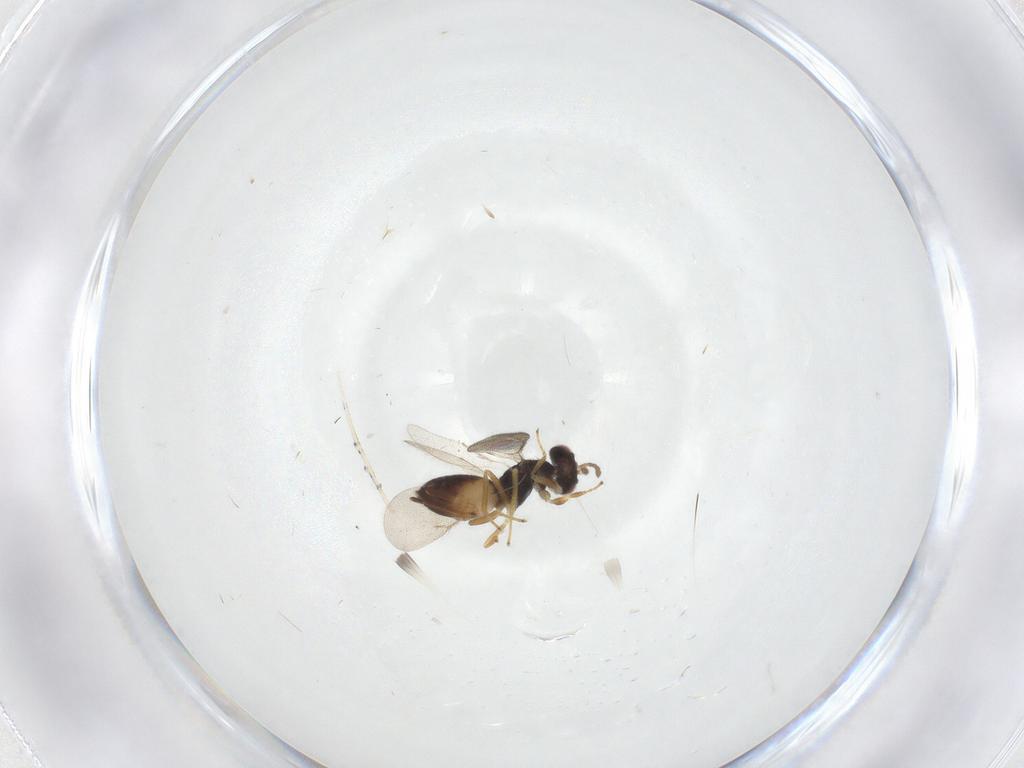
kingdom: Animalia
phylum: Arthropoda
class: Insecta
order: Hymenoptera
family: Eulophidae
